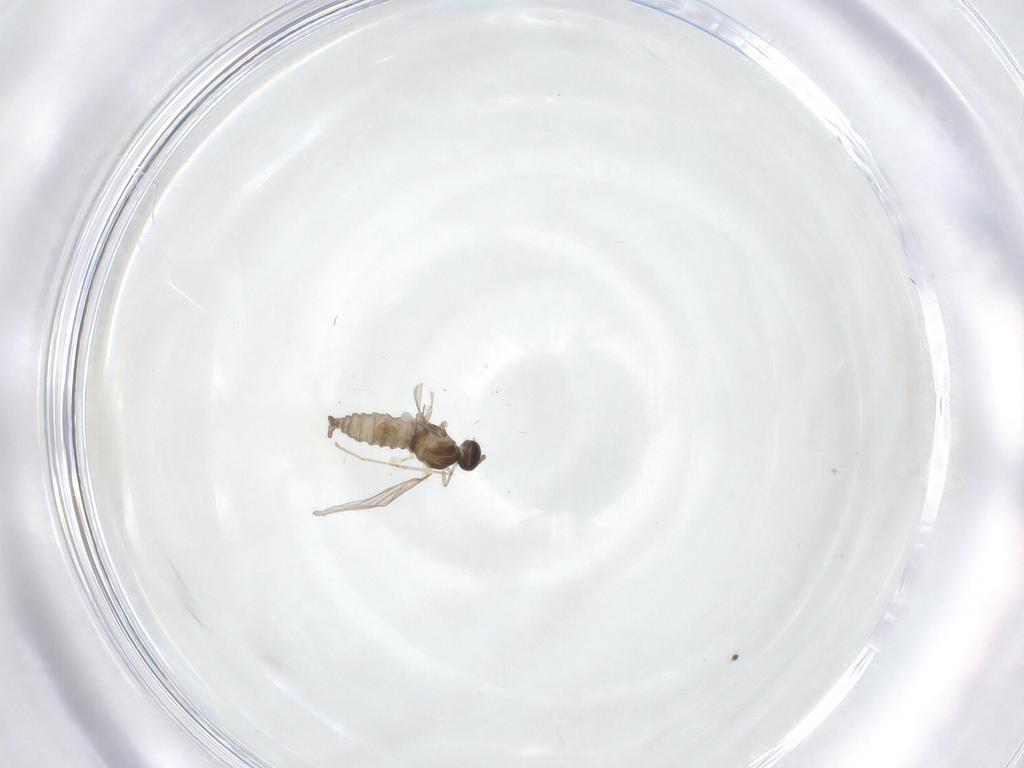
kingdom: Animalia
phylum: Arthropoda
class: Insecta
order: Diptera
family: Cecidomyiidae
